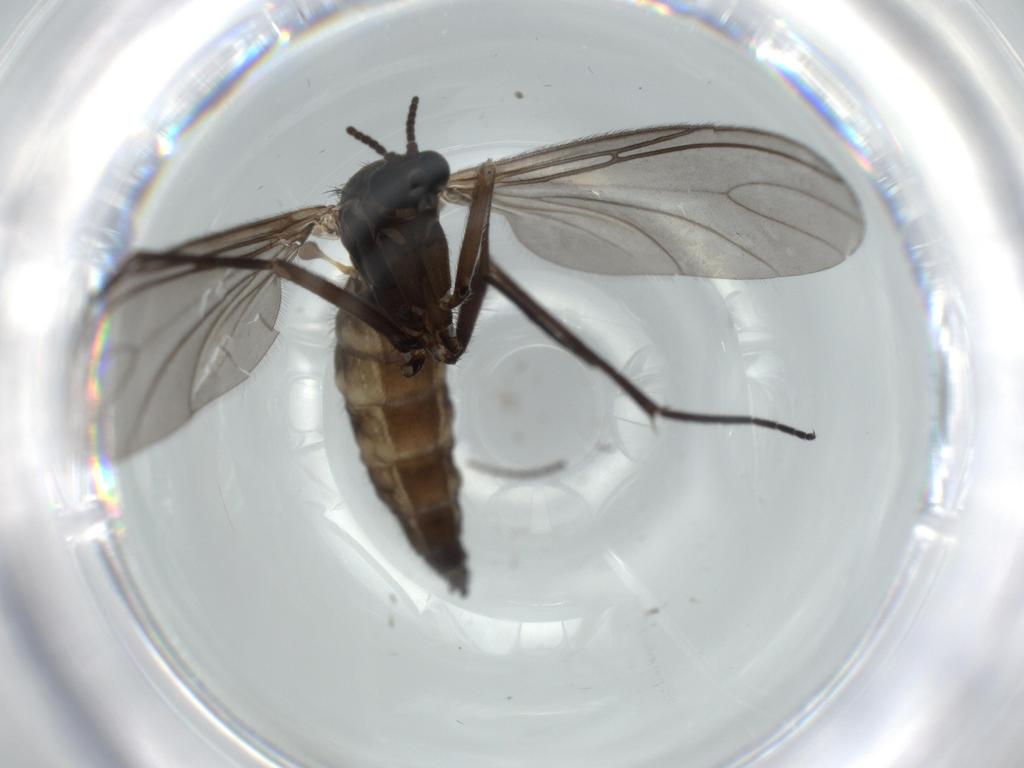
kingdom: Animalia
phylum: Arthropoda
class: Insecta
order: Diptera
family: Sciaridae
